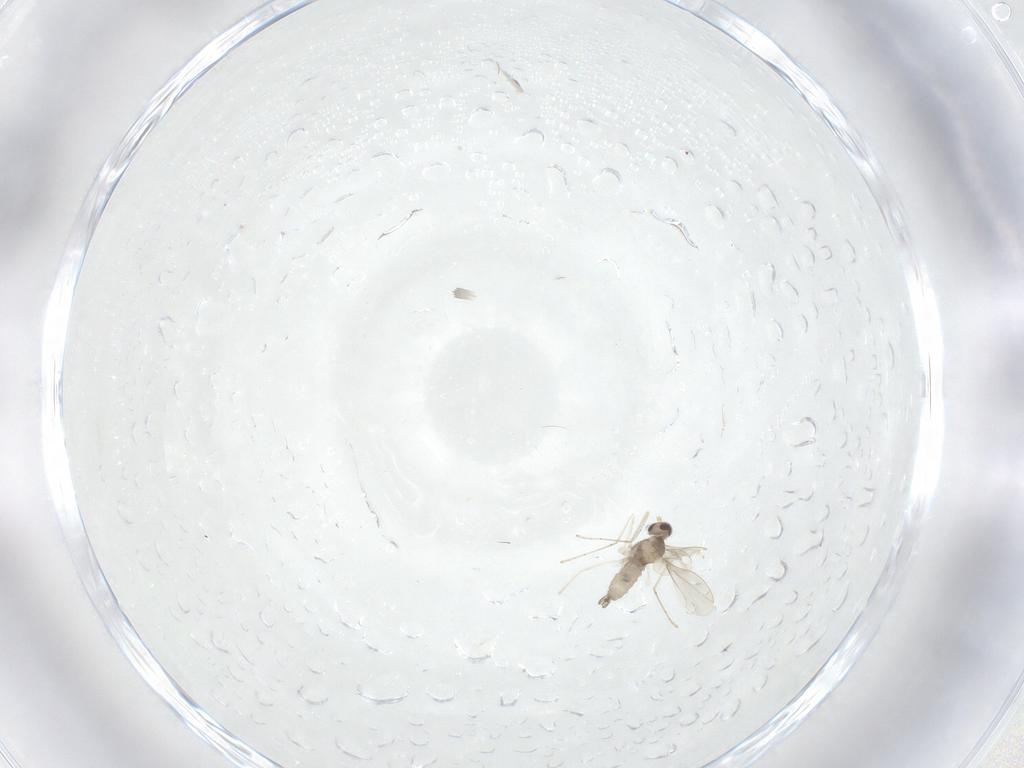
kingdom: Animalia
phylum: Arthropoda
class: Insecta
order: Diptera
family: Cecidomyiidae
